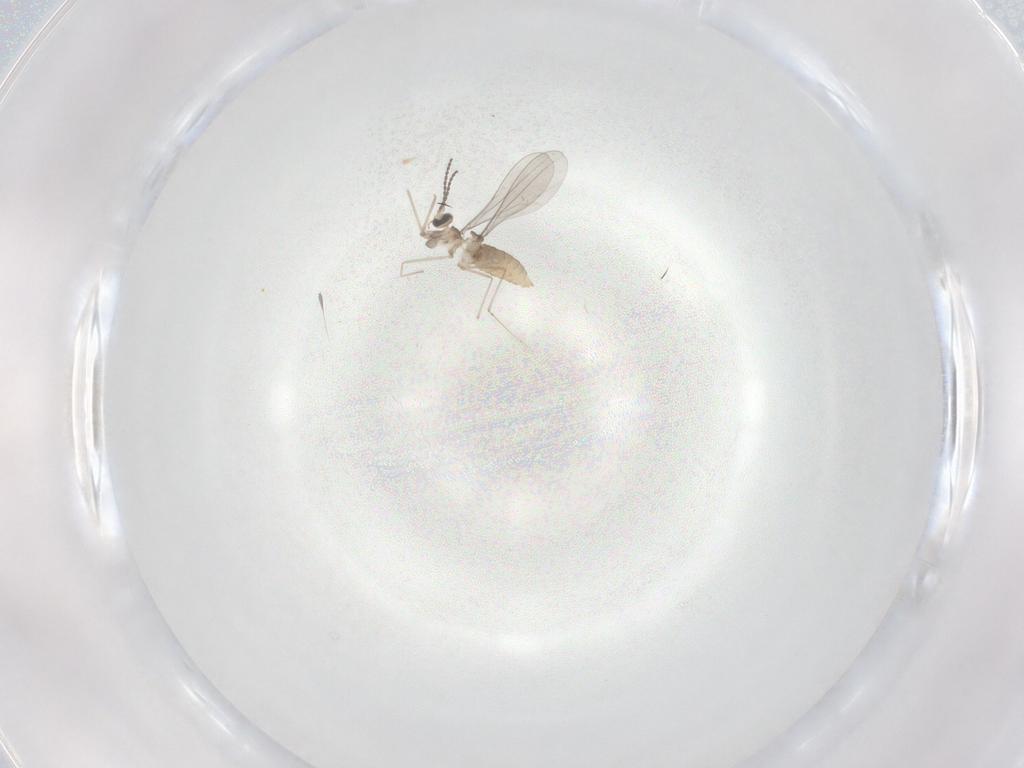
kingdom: Animalia
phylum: Arthropoda
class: Insecta
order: Diptera
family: Cecidomyiidae
